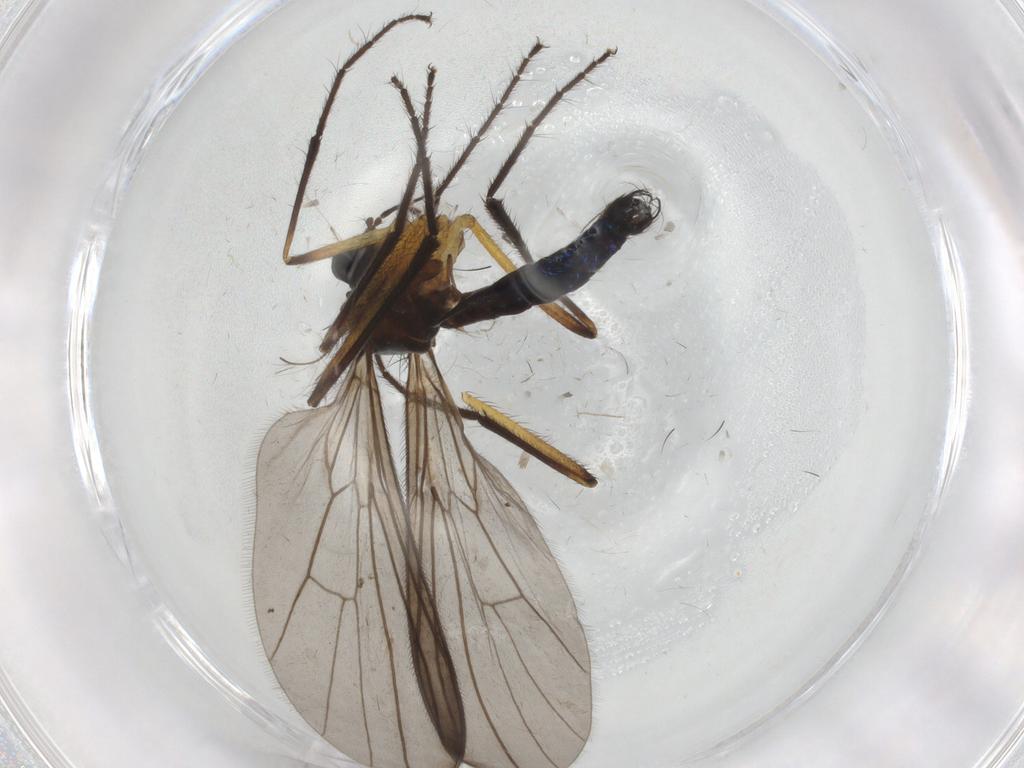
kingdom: Animalia
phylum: Arthropoda
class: Insecta
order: Diptera
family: Empididae
